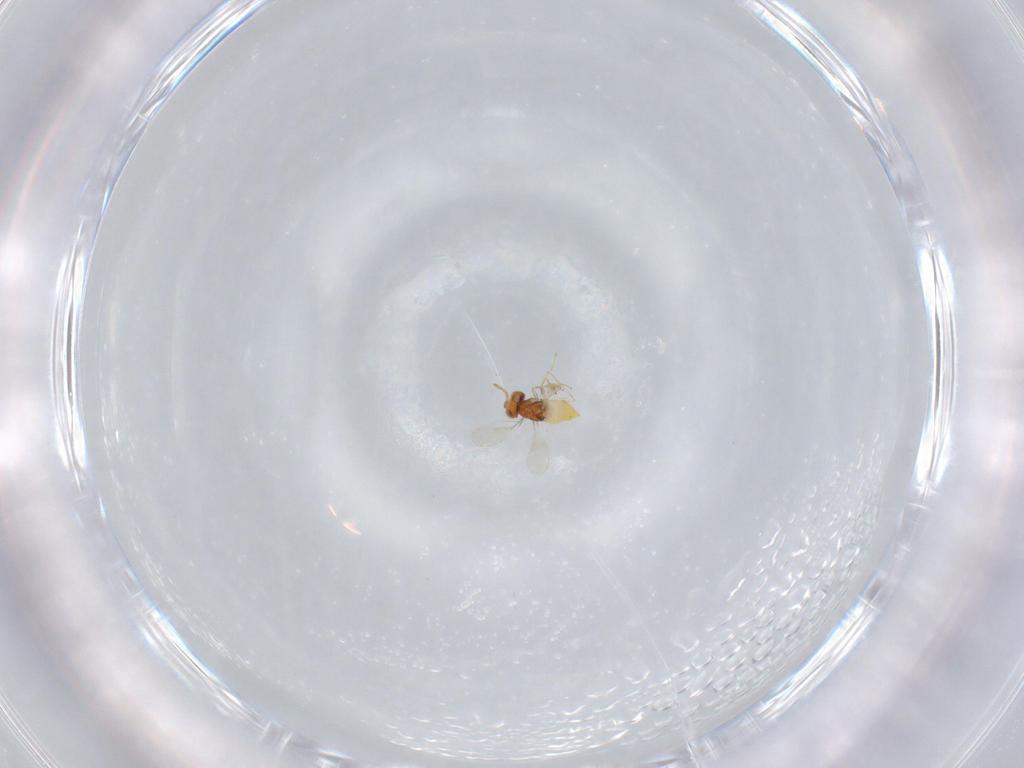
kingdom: Animalia
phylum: Arthropoda
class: Insecta
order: Hymenoptera
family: Aphelinidae
